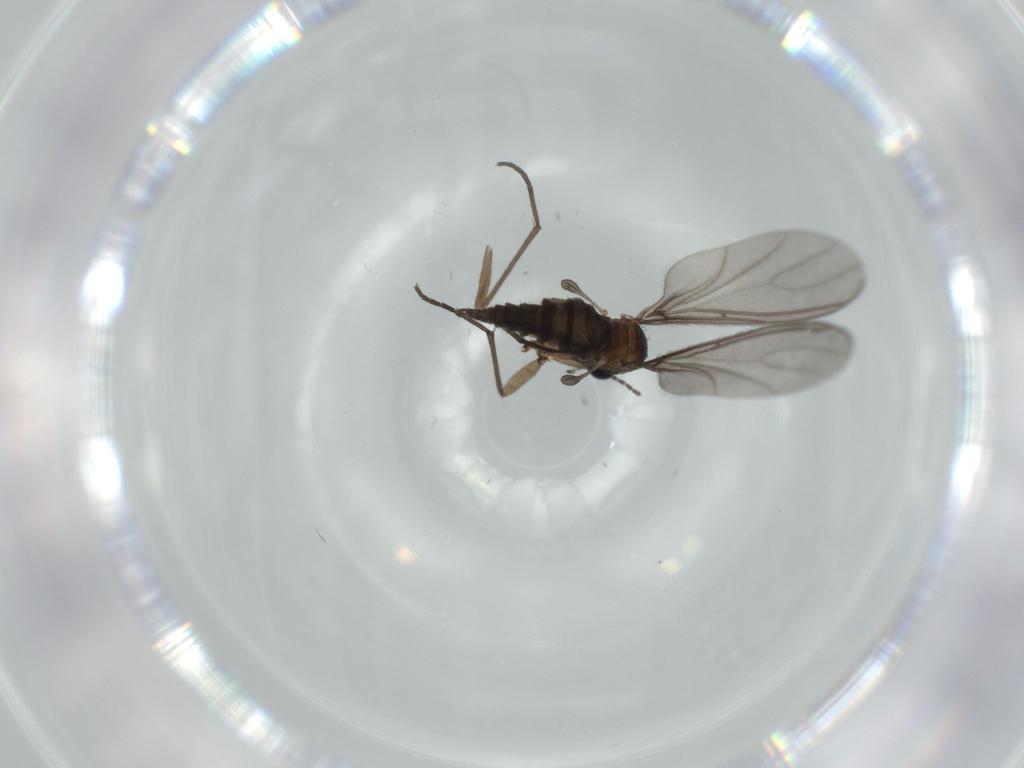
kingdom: Animalia
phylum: Arthropoda
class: Insecta
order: Diptera
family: Sciaridae
